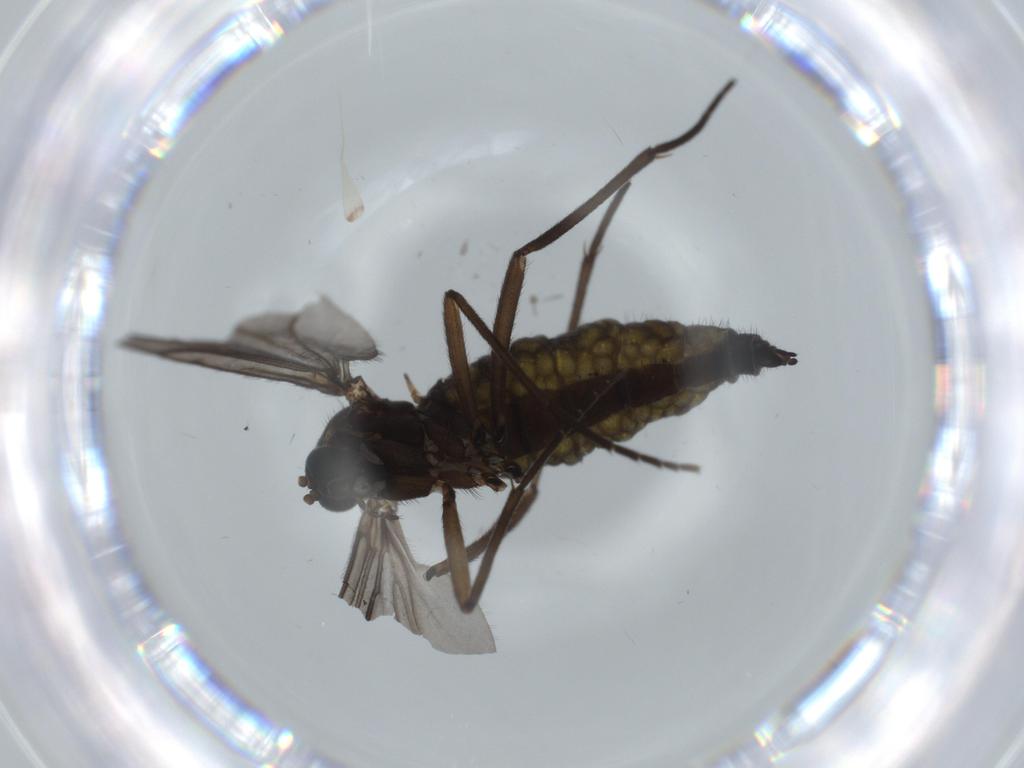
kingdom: Animalia
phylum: Arthropoda
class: Insecta
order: Diptera
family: Sciaridae
